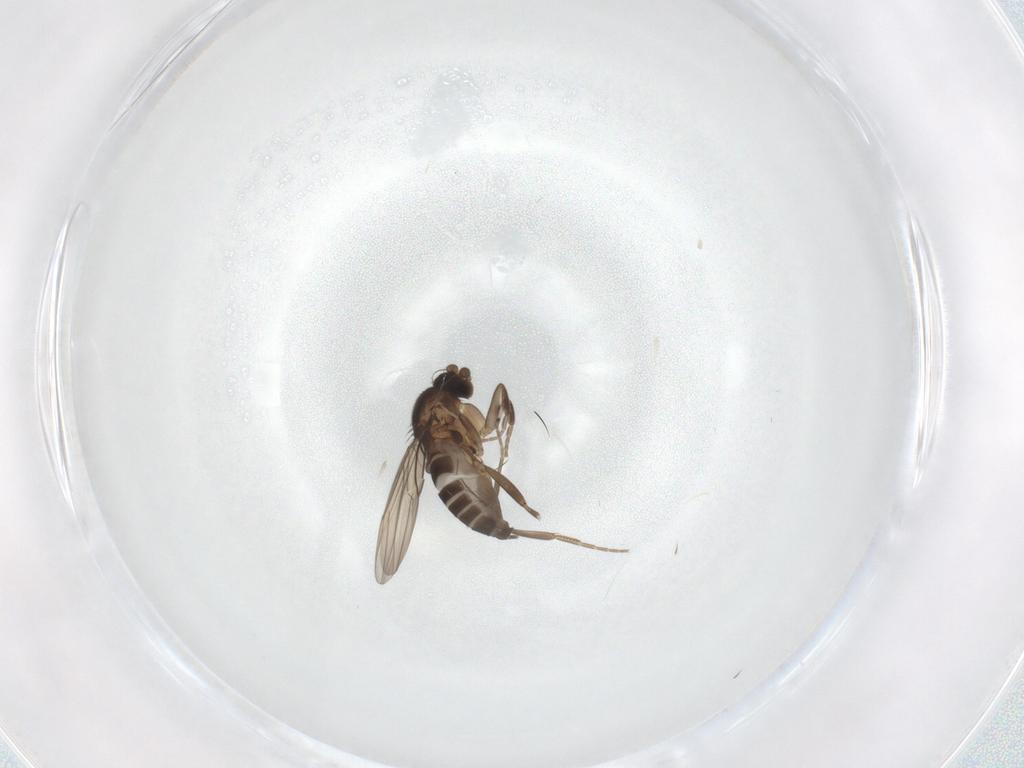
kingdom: Animalia
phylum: Arthropoda
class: Insecta
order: Diptera
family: Phoridae
